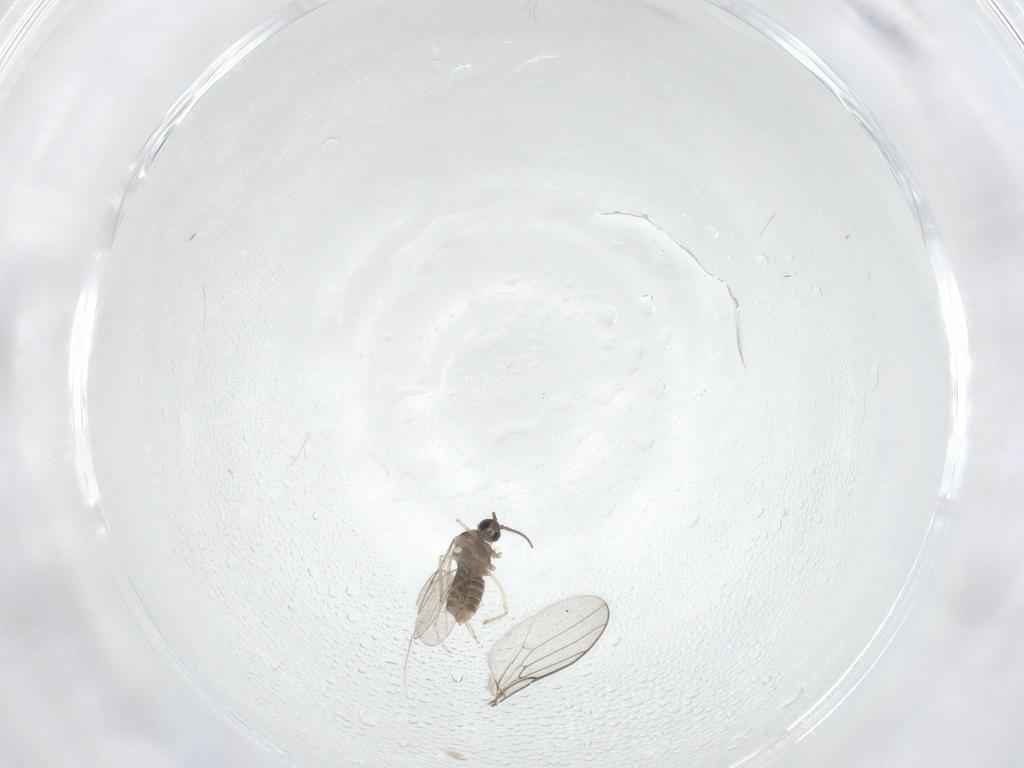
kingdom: Animalia
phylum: Arthropoda
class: Insecta
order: Diptera
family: Cecidomyiidae
